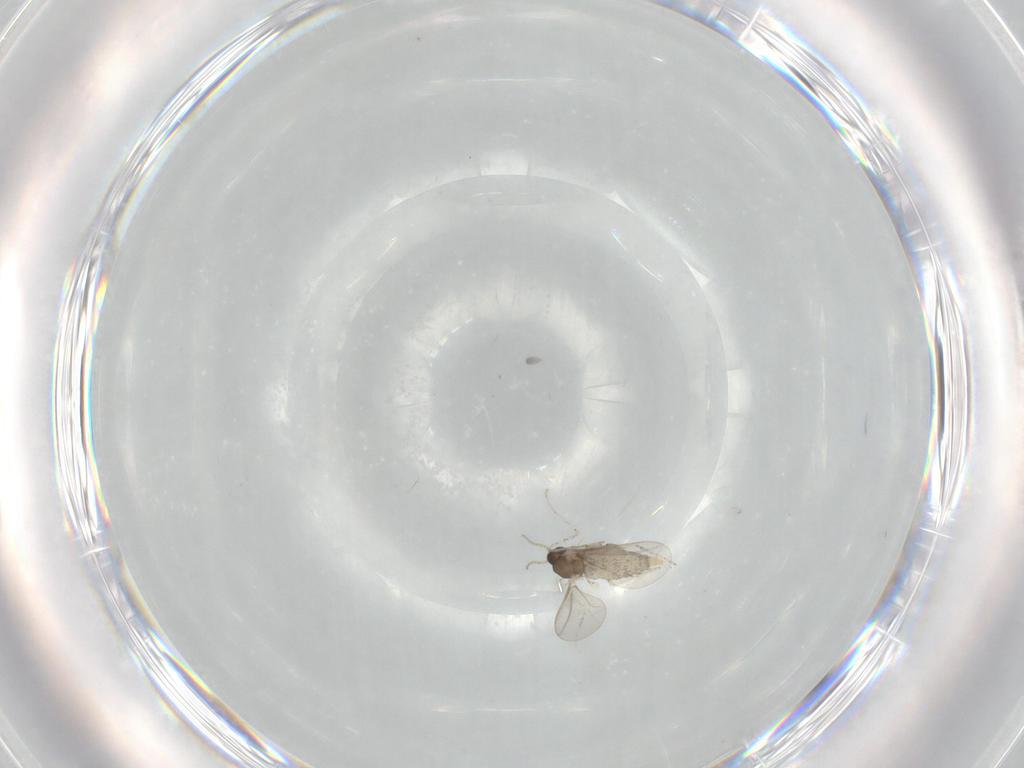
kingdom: Animalia
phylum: Arthropoda
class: Insecta
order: Diptera
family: Cecidomyiidae
